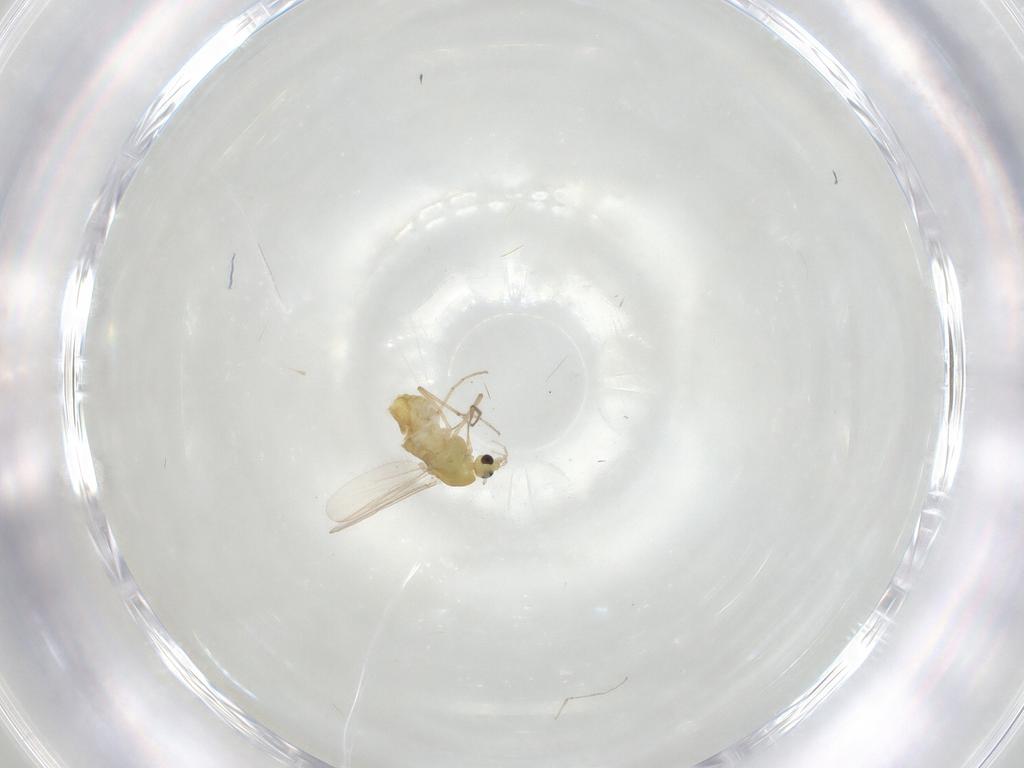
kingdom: Animalia
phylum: Arthropoda
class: Insecta
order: Diptera
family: Chironomidae
